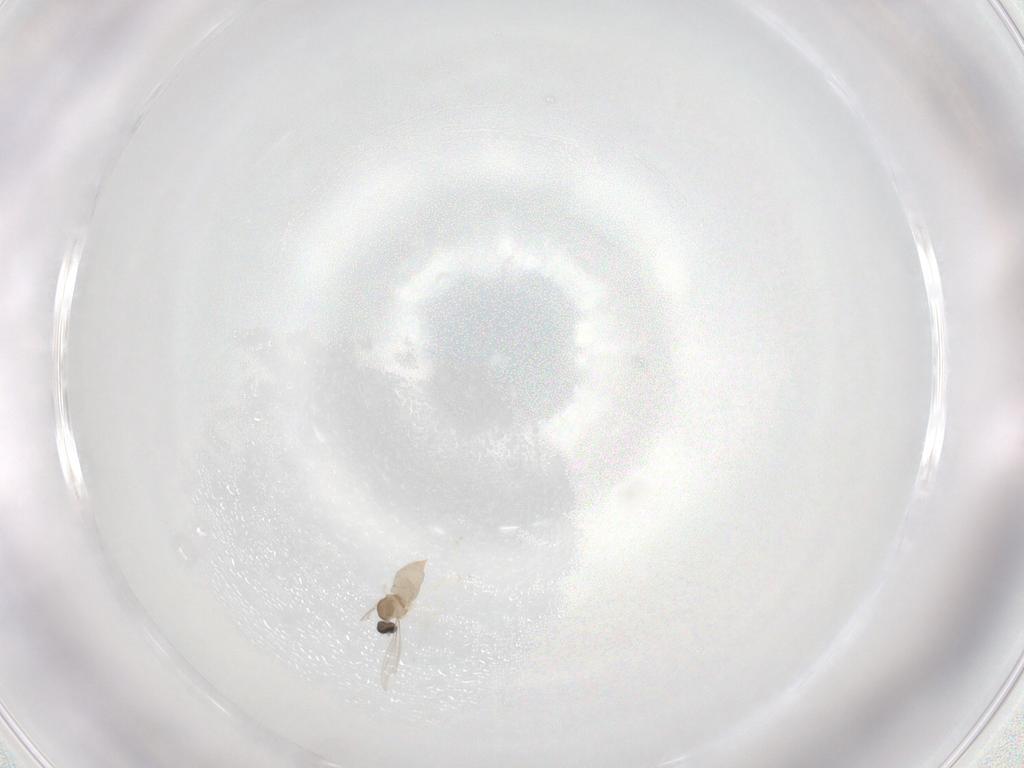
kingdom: Animalia
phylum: Arthropoda
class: Insecta
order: Diptera
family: Cecidomyiidae
